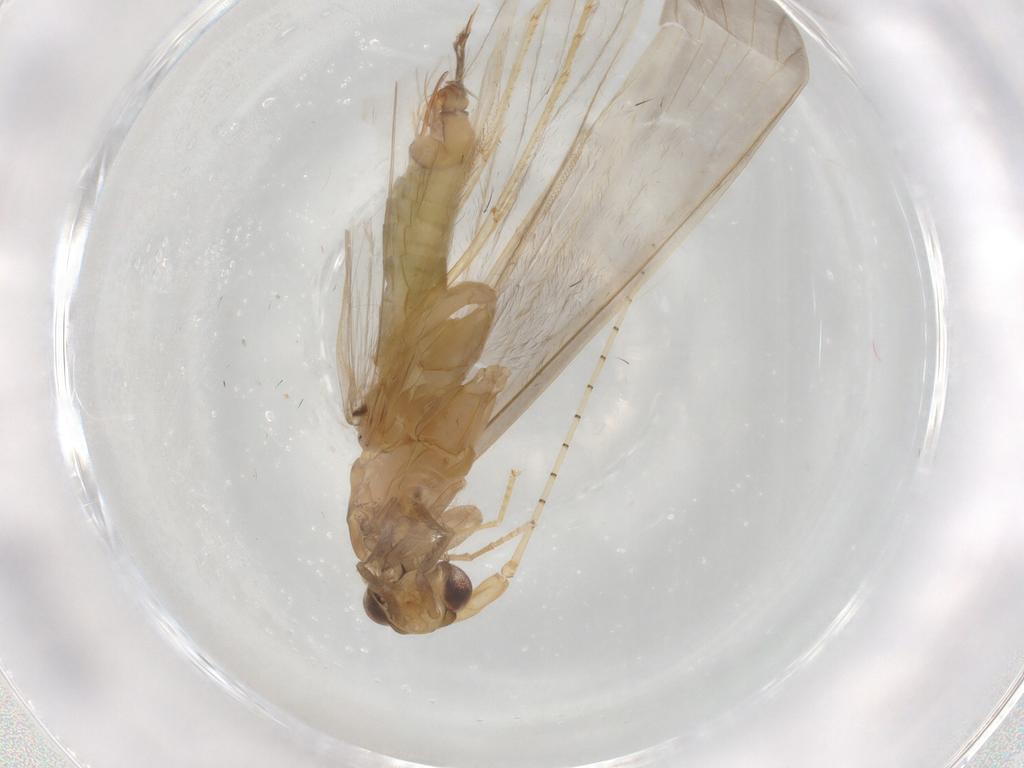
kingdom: Animalia
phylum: Arthropoda
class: Insecta
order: Trichoptera
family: Leptoceridae
